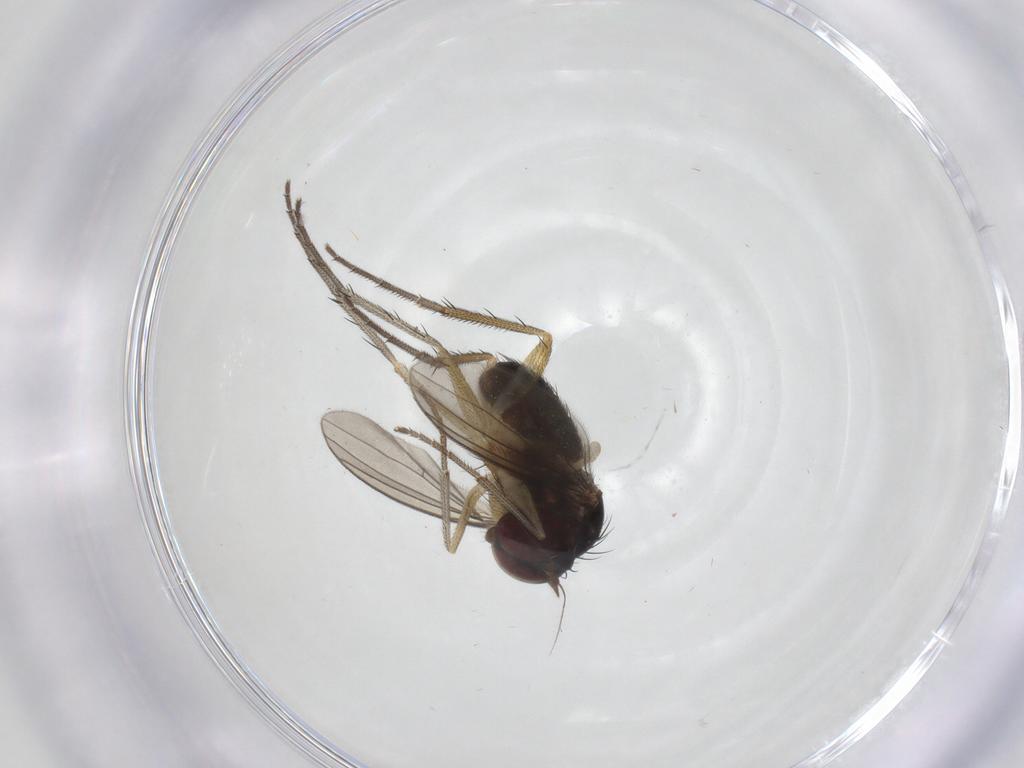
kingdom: Animalia
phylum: Arthropoda
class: Insecta
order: Diptera
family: Dolichopodidae
